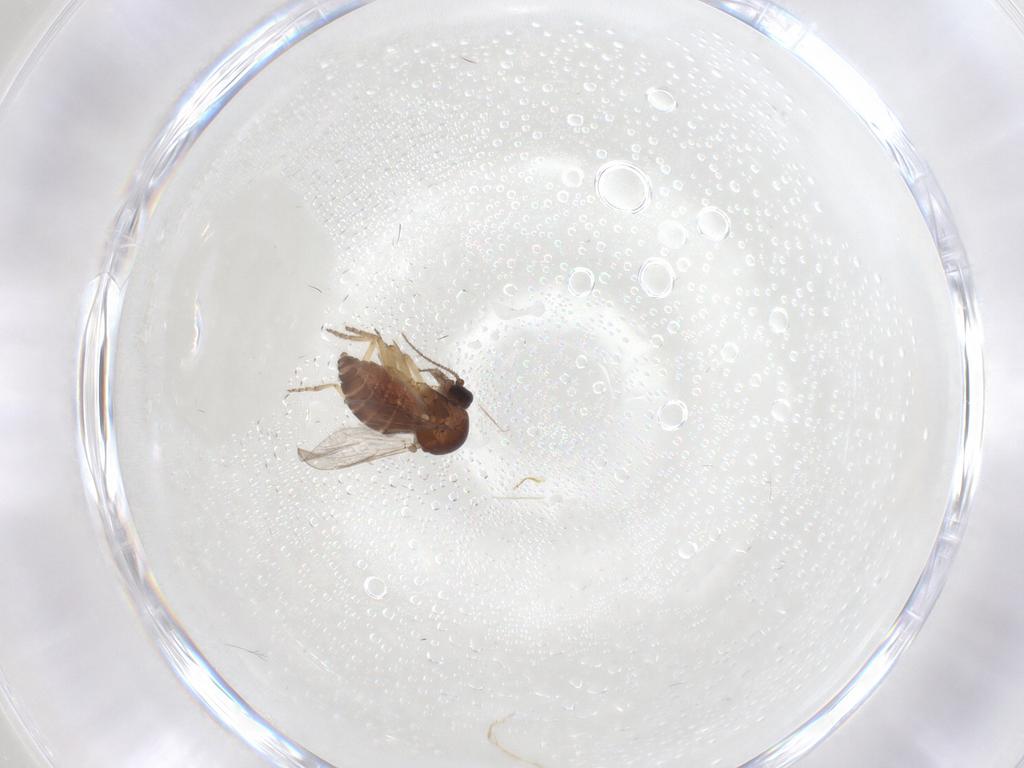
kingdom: Animalia
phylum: Arthropoda
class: Insecta
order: Diptera
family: Ceratopogonidae
